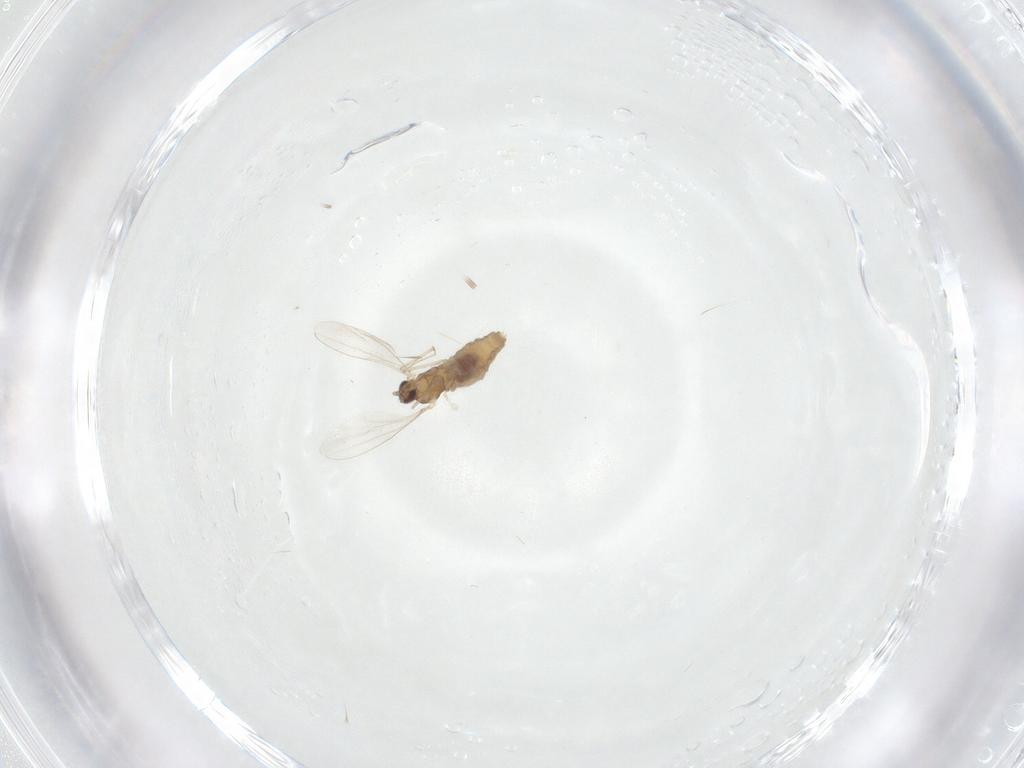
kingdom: Animalia
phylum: Arthropoda
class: Insecta
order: Diptera
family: Cecidomyiidae
